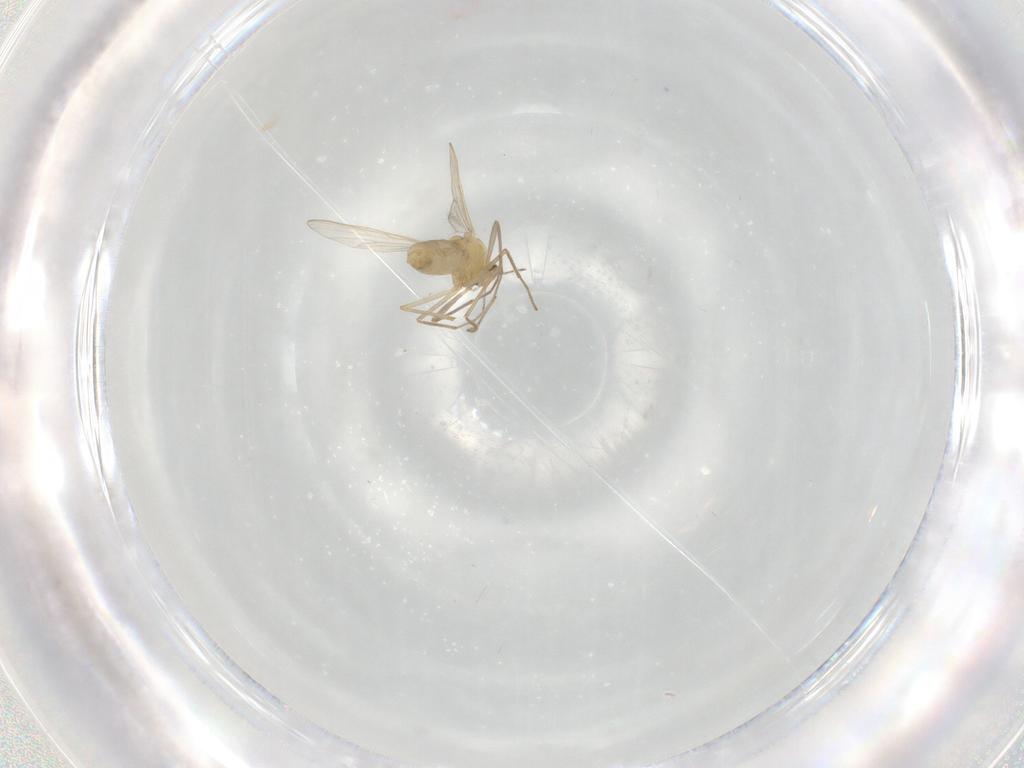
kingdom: Animalia
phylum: Arthropoda
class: Insecta
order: Diptera
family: Chironomidae
